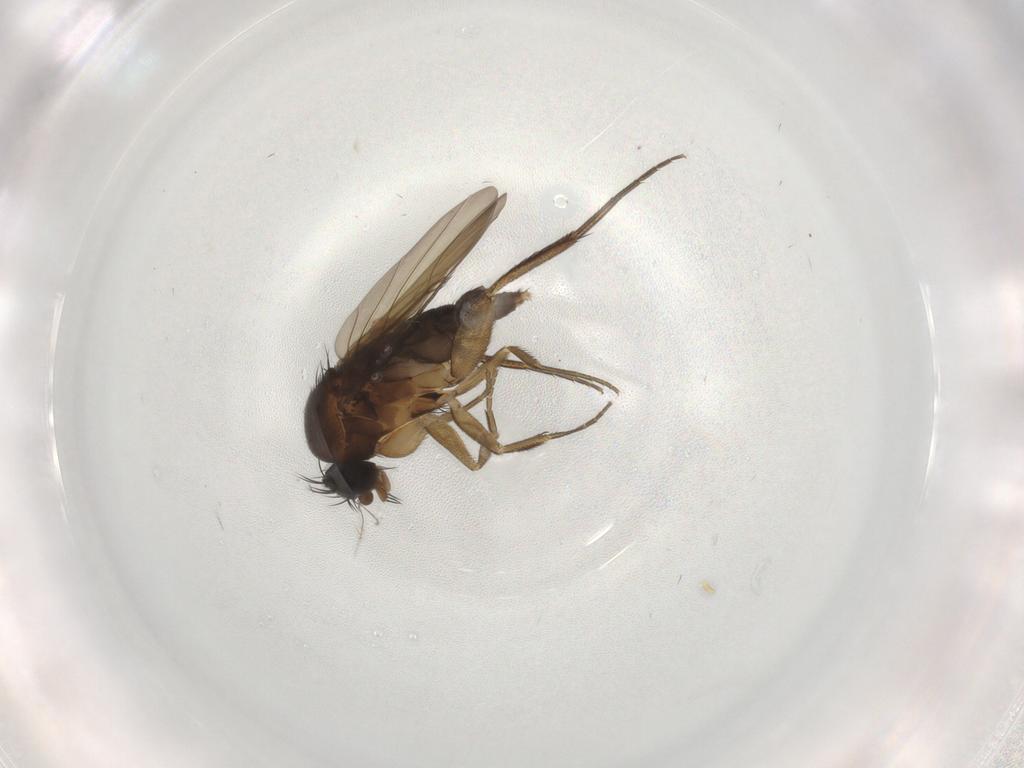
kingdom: Animalia
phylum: Arthropoda
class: Insecta
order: Diptera
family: Phoridae
